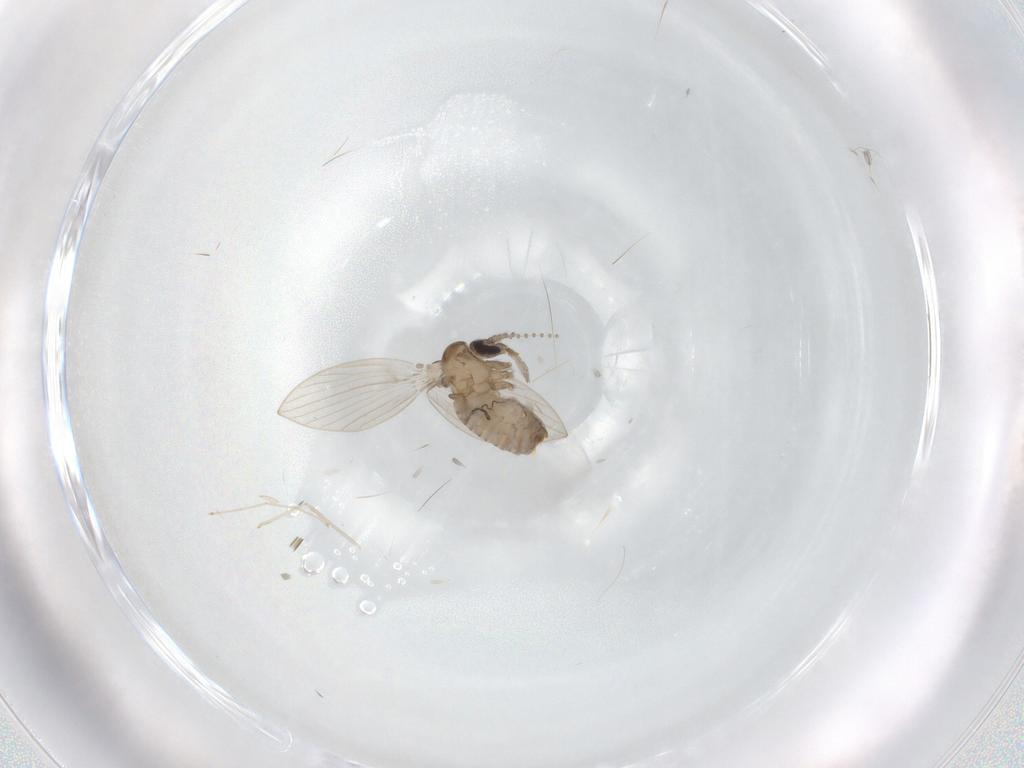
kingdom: Animalia
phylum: Arthropoda
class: Insecta
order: Diptera
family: Psychodidae
